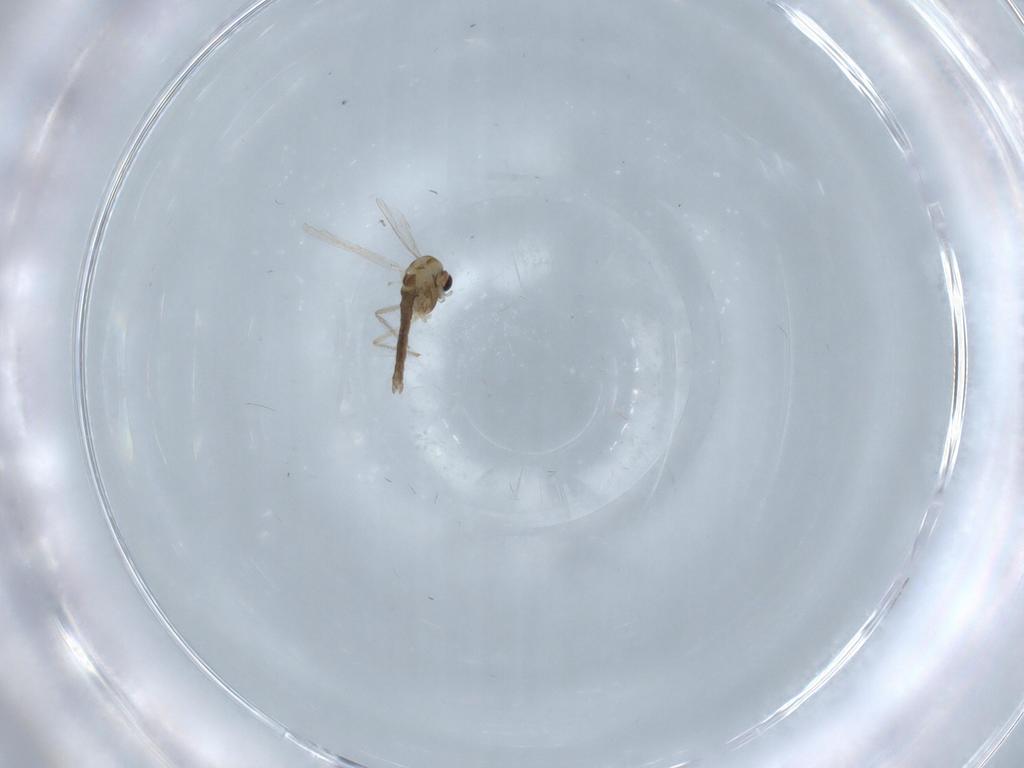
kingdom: Animalia
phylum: Arthropoda
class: Insecta
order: Diptera
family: Chironomidae
